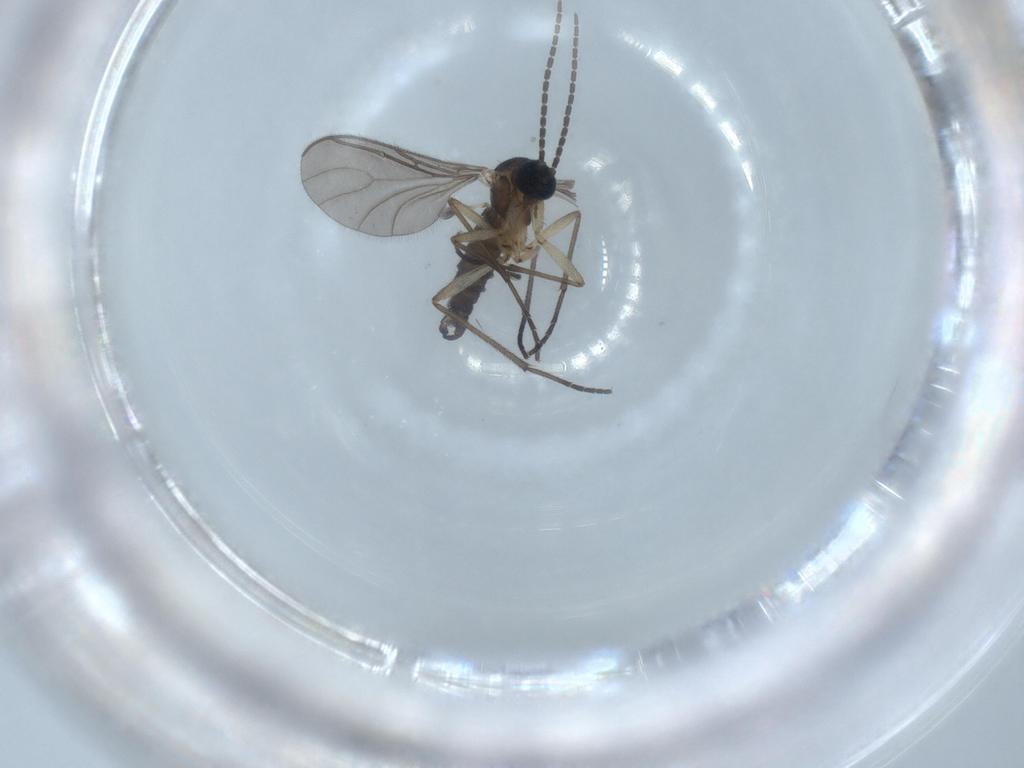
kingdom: Animalia
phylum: Arthropoda
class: Insecta
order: Diptera
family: Sciaridae
